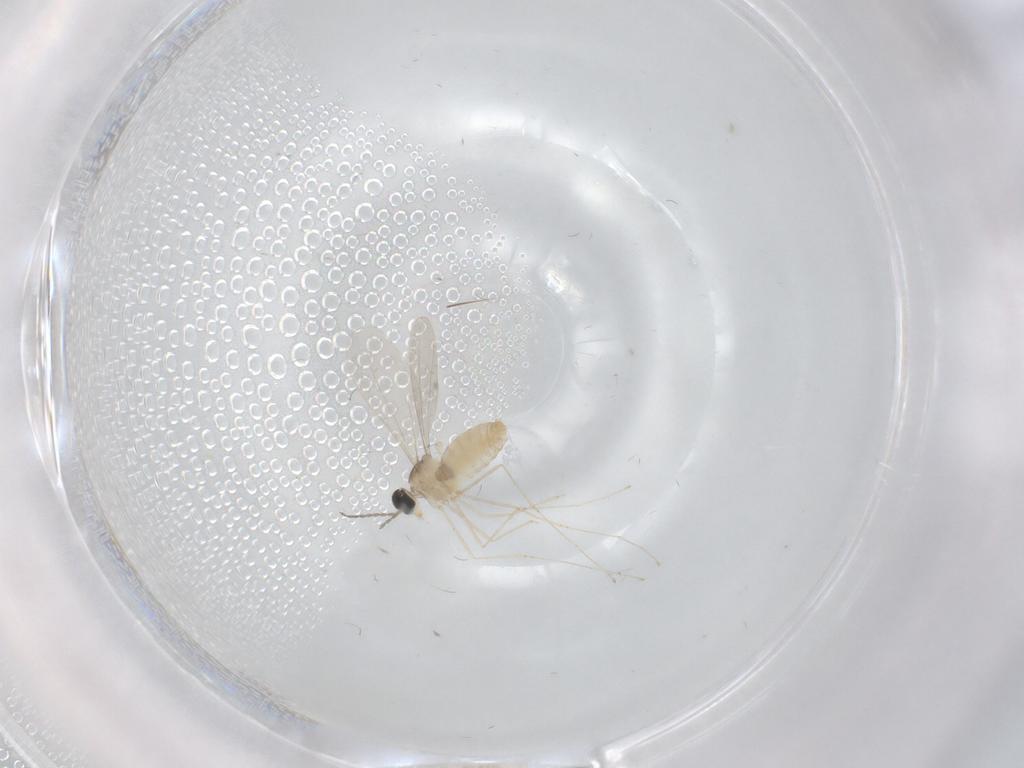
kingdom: Animalia
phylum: Arthropoda
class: Insecta
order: Diptera
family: Cecidomyiidae
